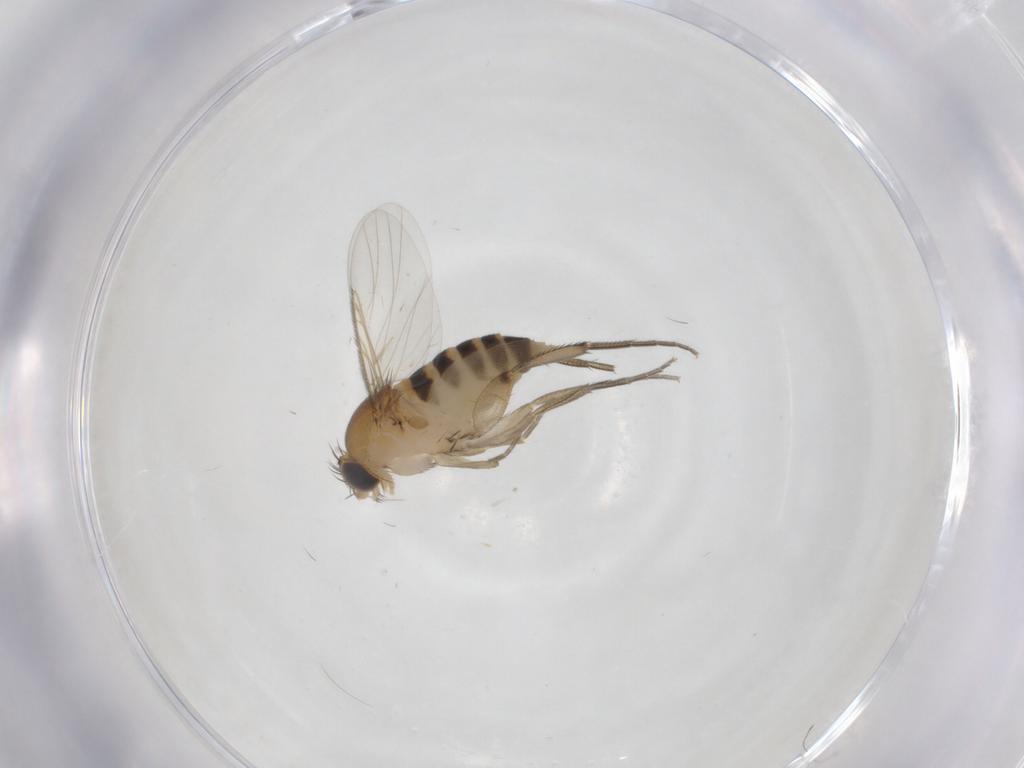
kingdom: Animalia
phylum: Arthropoda
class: Insecta
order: Diptera
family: Phoridae
